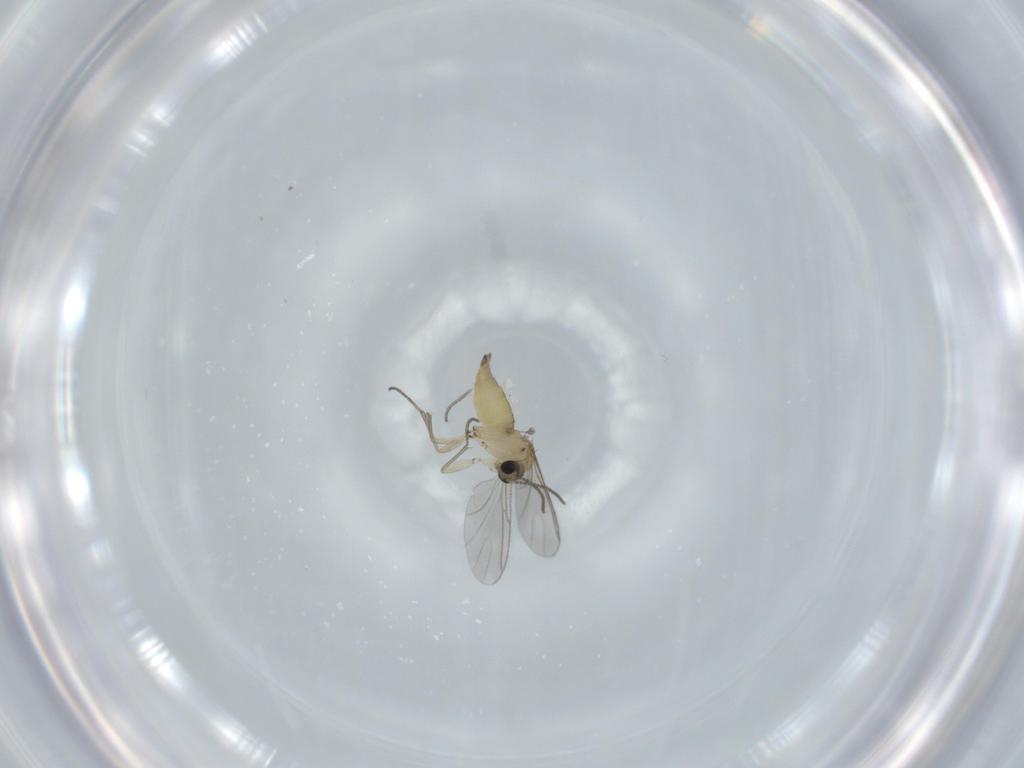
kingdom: Animalia
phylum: Arthropoda
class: Insecta
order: Diptera
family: Sciaridae
